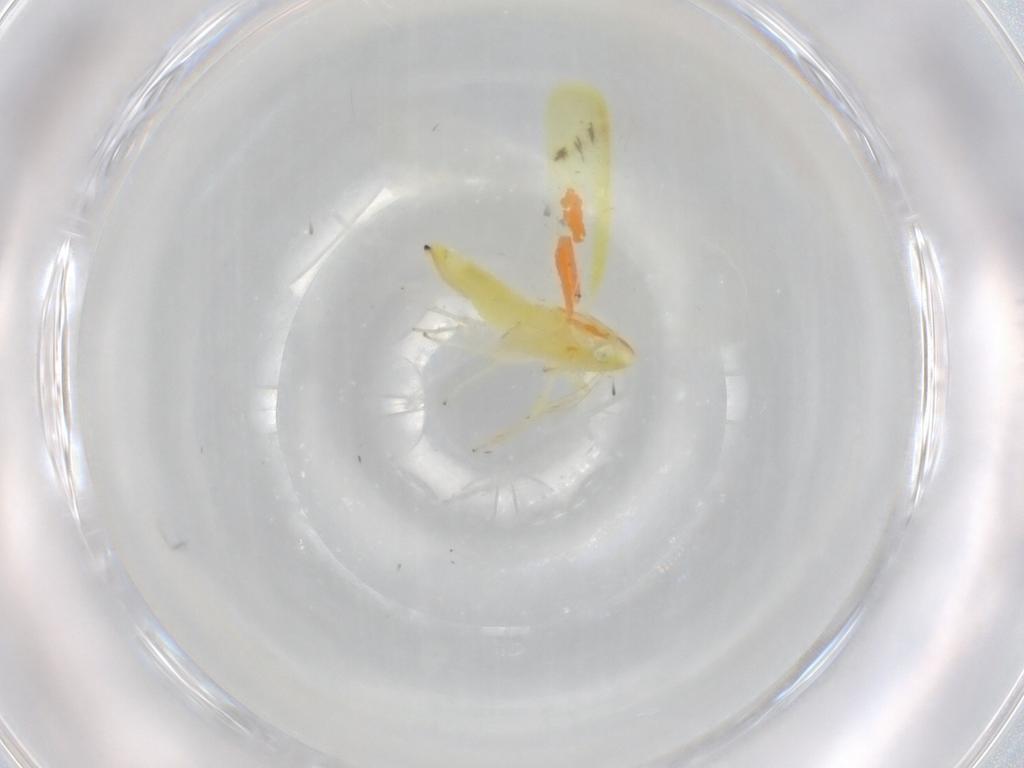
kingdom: Animalia
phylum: Arthropoda
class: Insecta
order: Hemiptera
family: Cicadellidae
